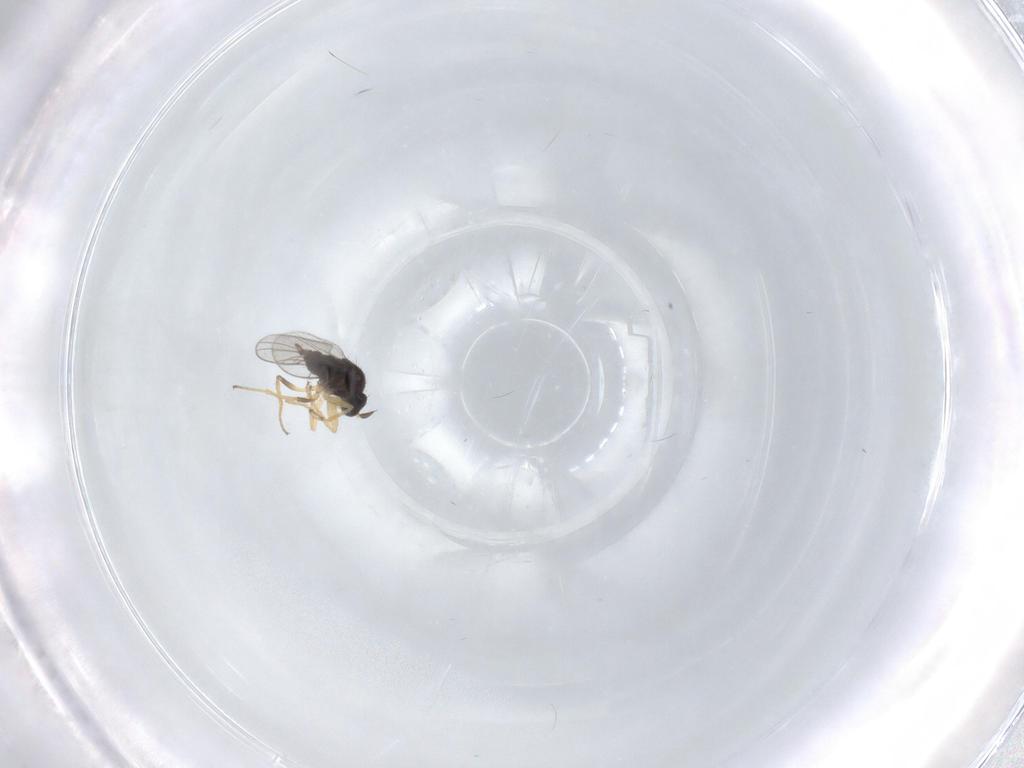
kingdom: Animalia
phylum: Arthropoda
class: Insecta
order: Diptera
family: Hybotidae
